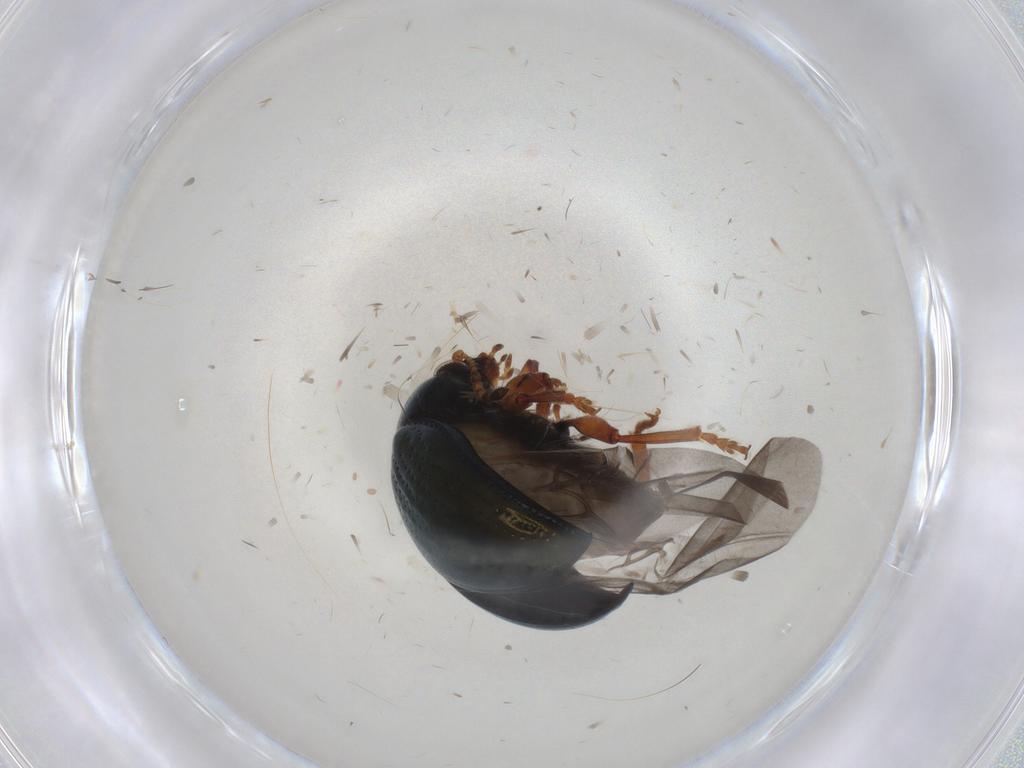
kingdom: Animalia
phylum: Arthropoda
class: Insecta
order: Coleoptera
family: Chrysomelidae
